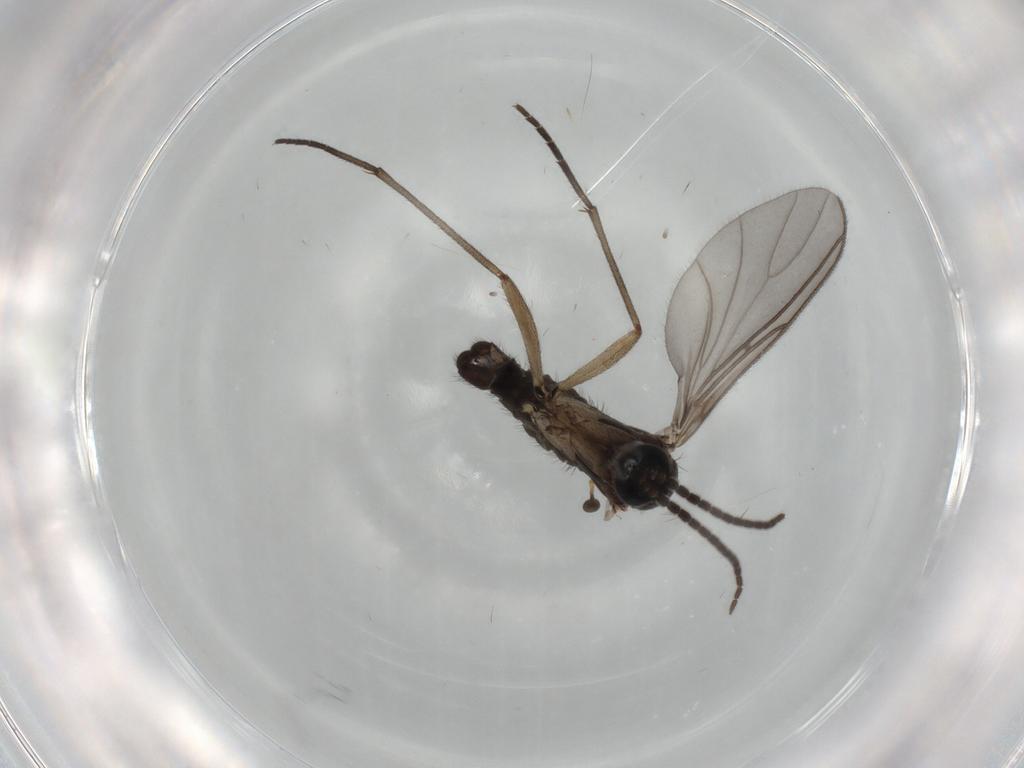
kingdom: Animalia
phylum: Arthropoda
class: Insecta
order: Diptera
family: Sciaridae
